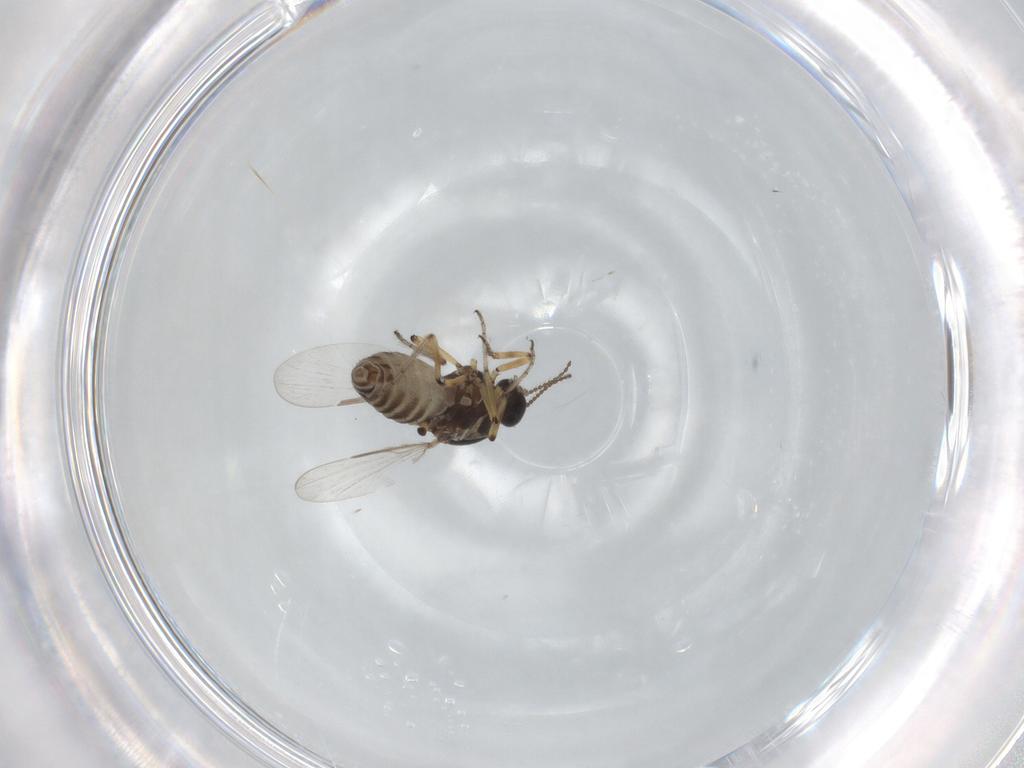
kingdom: Animalia
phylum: Arthropoda
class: Insecta
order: Diptera
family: Ceratopogonidae
